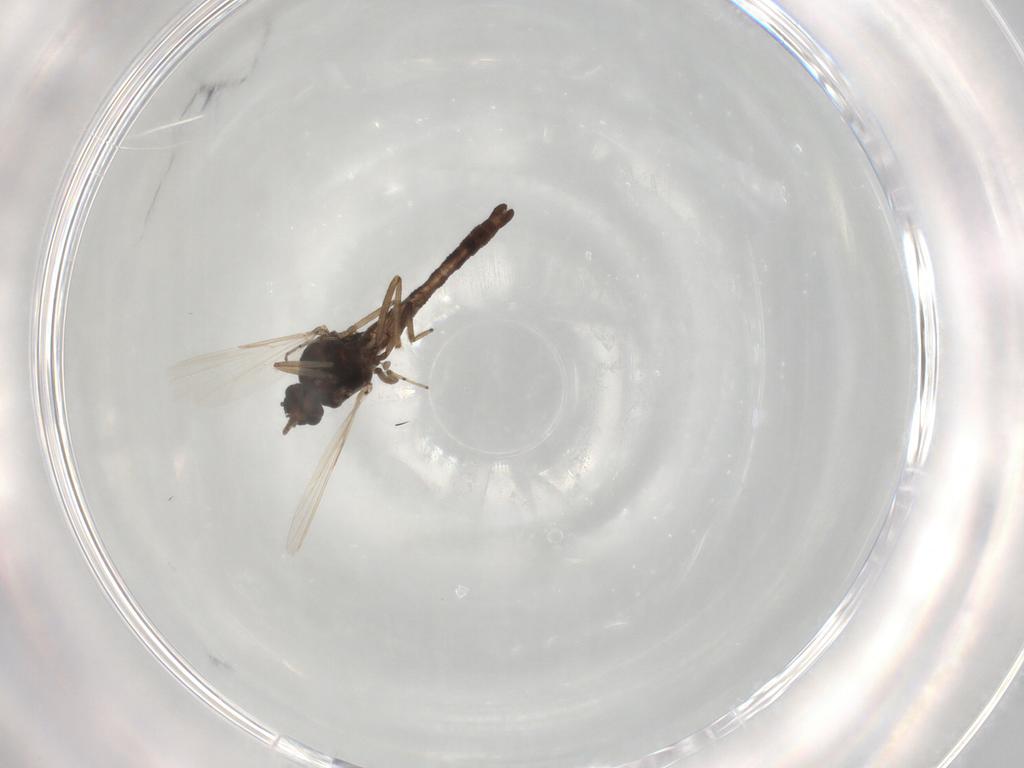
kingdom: Animalia
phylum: Arthropoda
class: Insecta
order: Diptera
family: Ceratopogonidae
